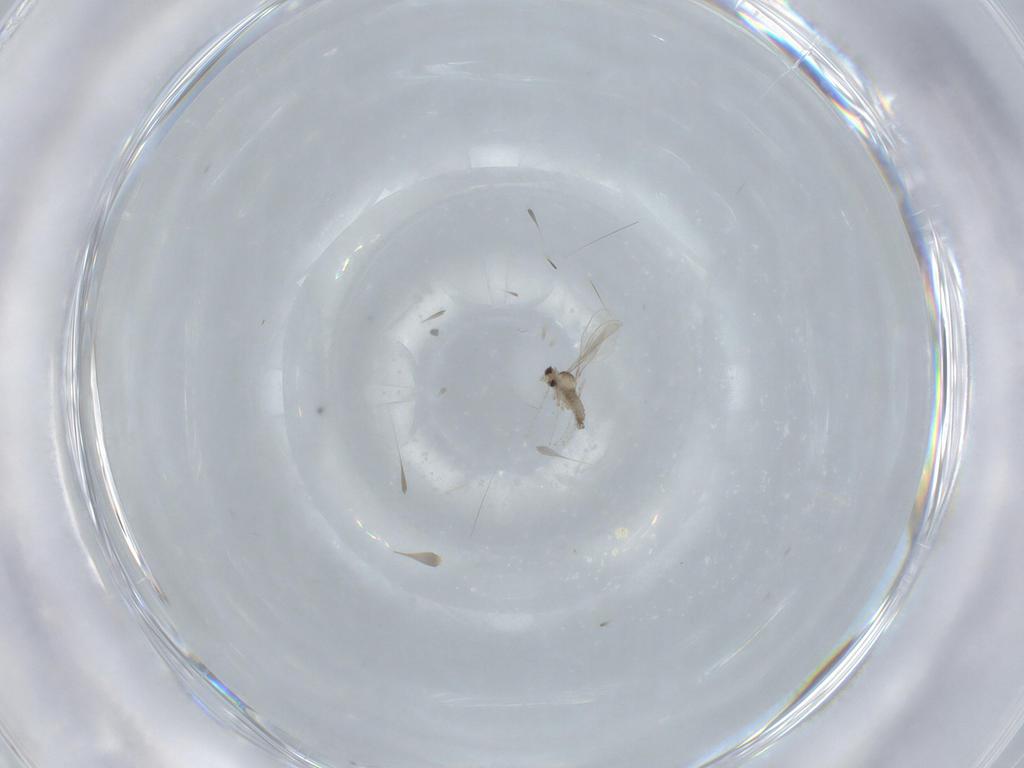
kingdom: Animalia
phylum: Arthropoda
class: Insecta
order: Diptera
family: Cecidomyiidae
